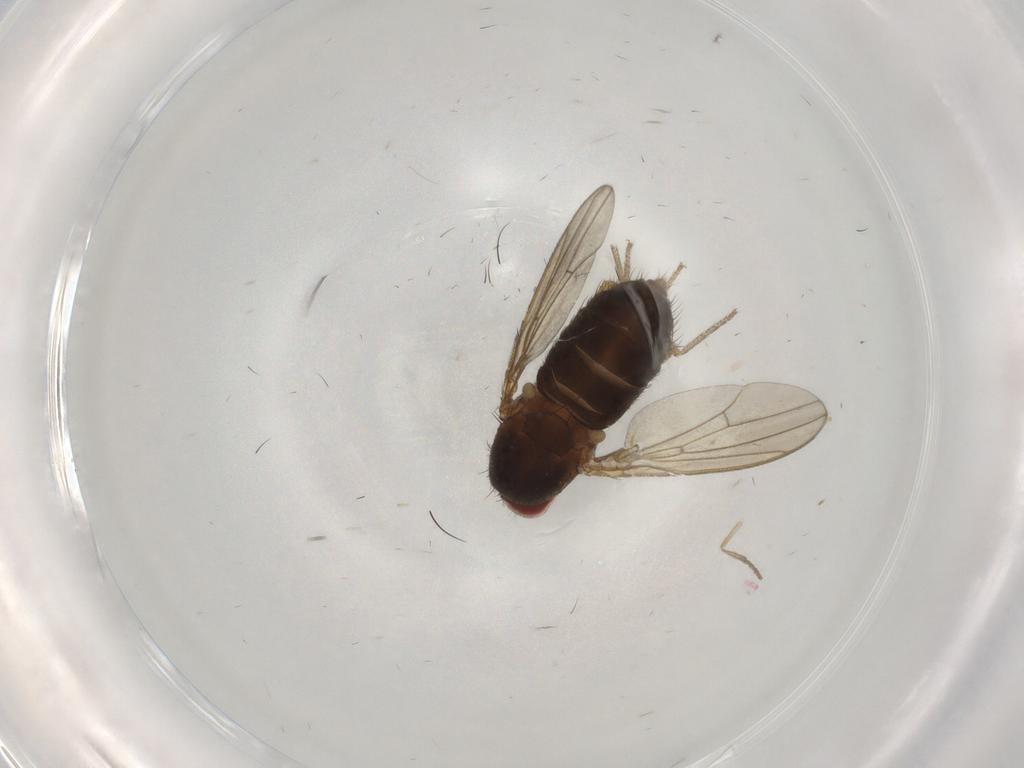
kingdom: Animalia
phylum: Arthropoda
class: Insecta
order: Diptera
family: Drosophilidae
